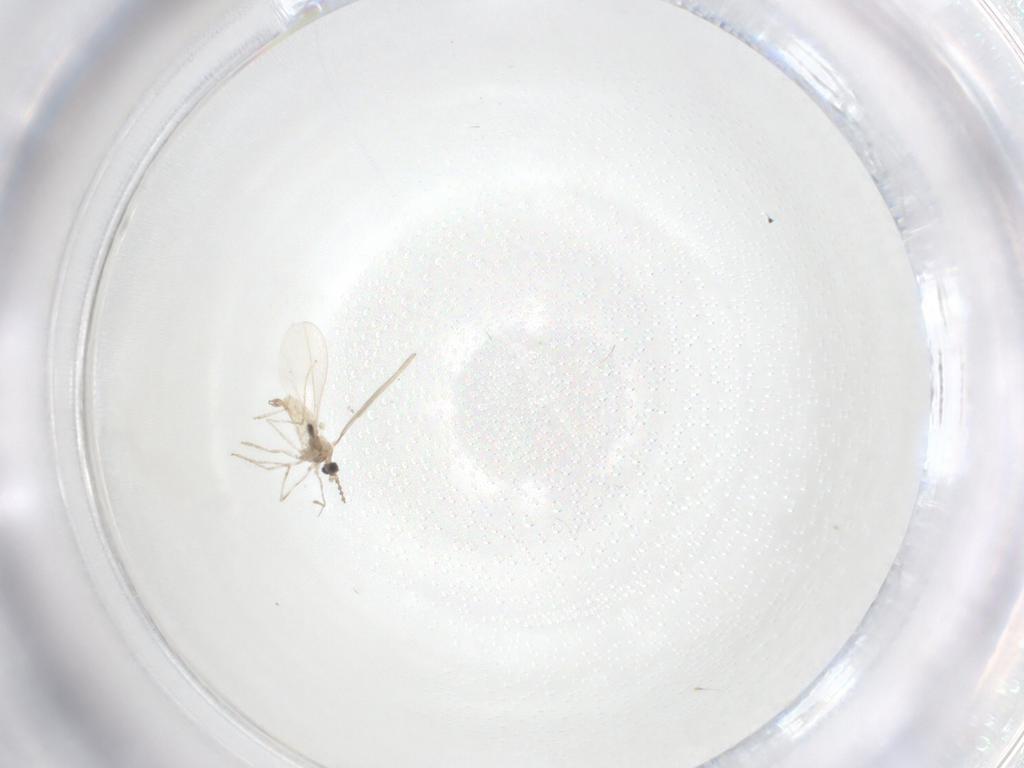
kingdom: Animalia
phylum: Arthropoda
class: Insecta
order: Diptera
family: Cecidomyiidae
